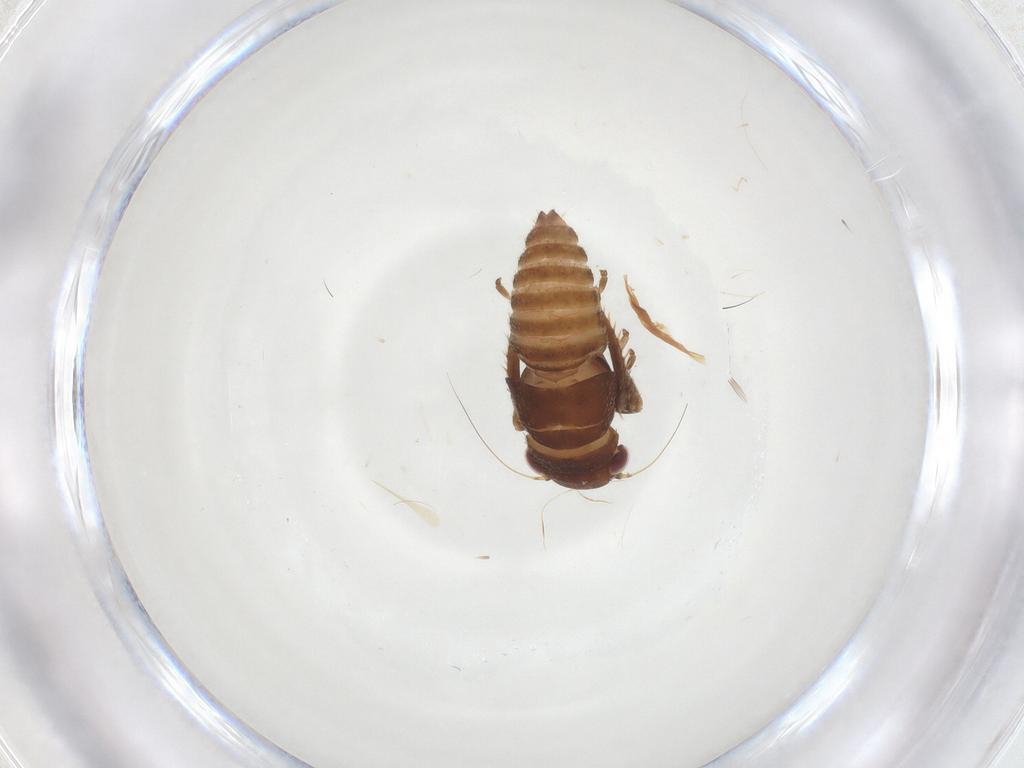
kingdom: Animalia
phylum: Arthropoda
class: Insecta
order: Hemiptera
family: Cicadellidae
